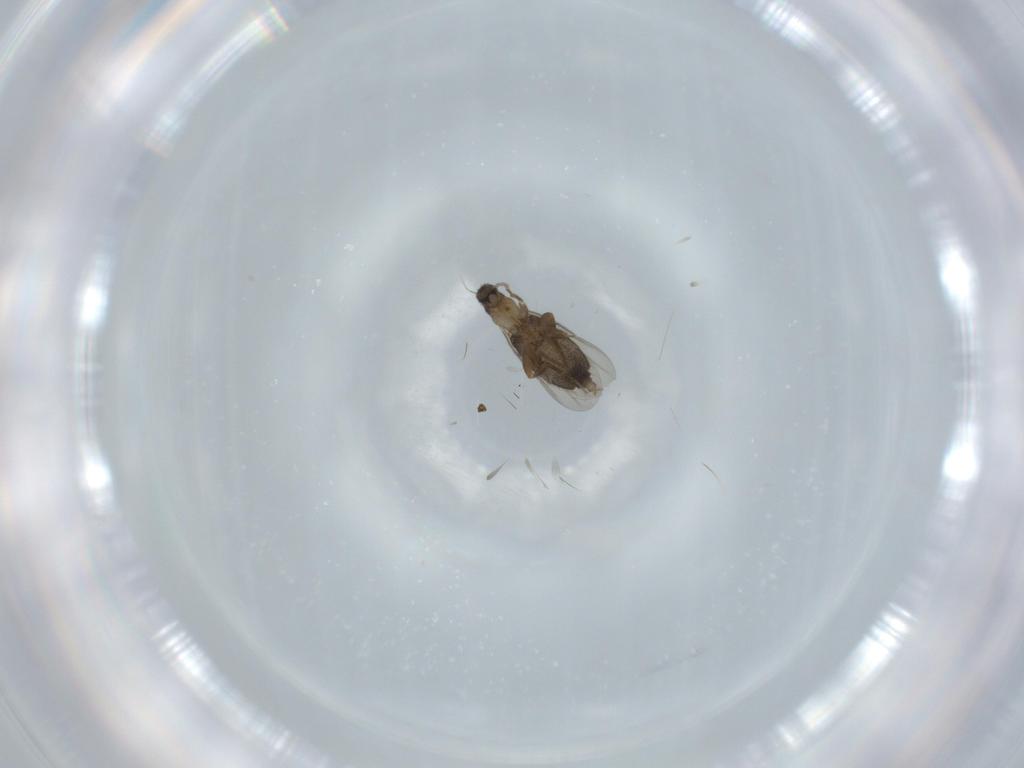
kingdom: Animalia
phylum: Arthropoda
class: Insecta
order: Diptera
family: Phoridae
